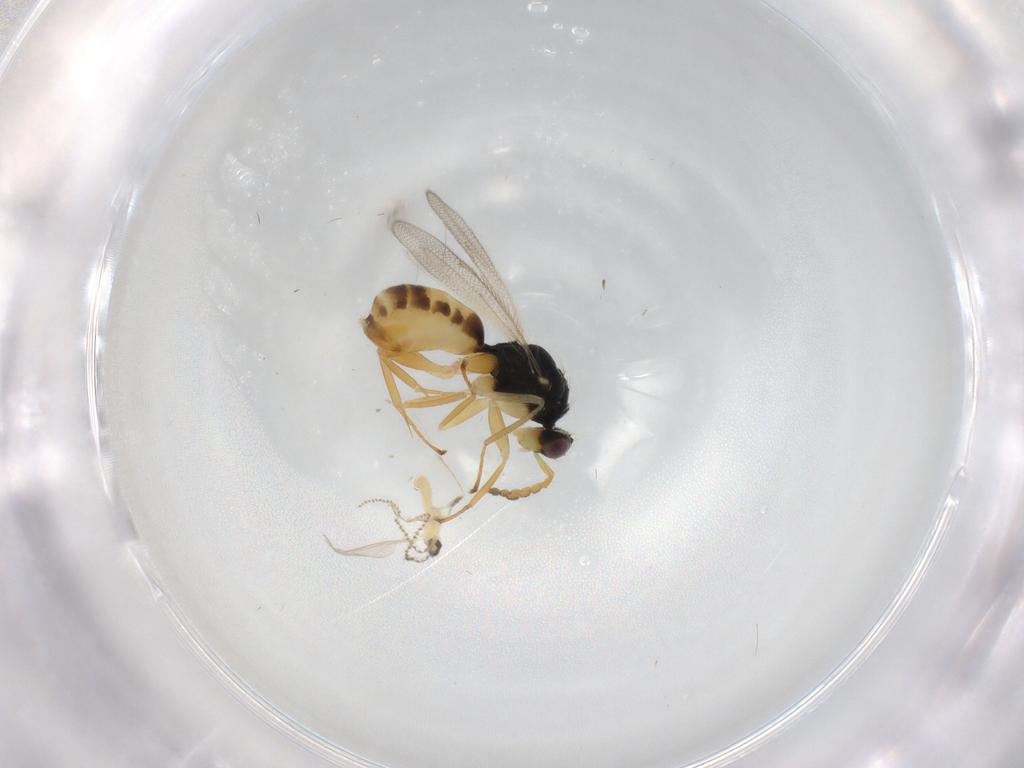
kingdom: Animalia
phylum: Arthropoda
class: Insecta
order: Hymenoptera
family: Eulophidae
